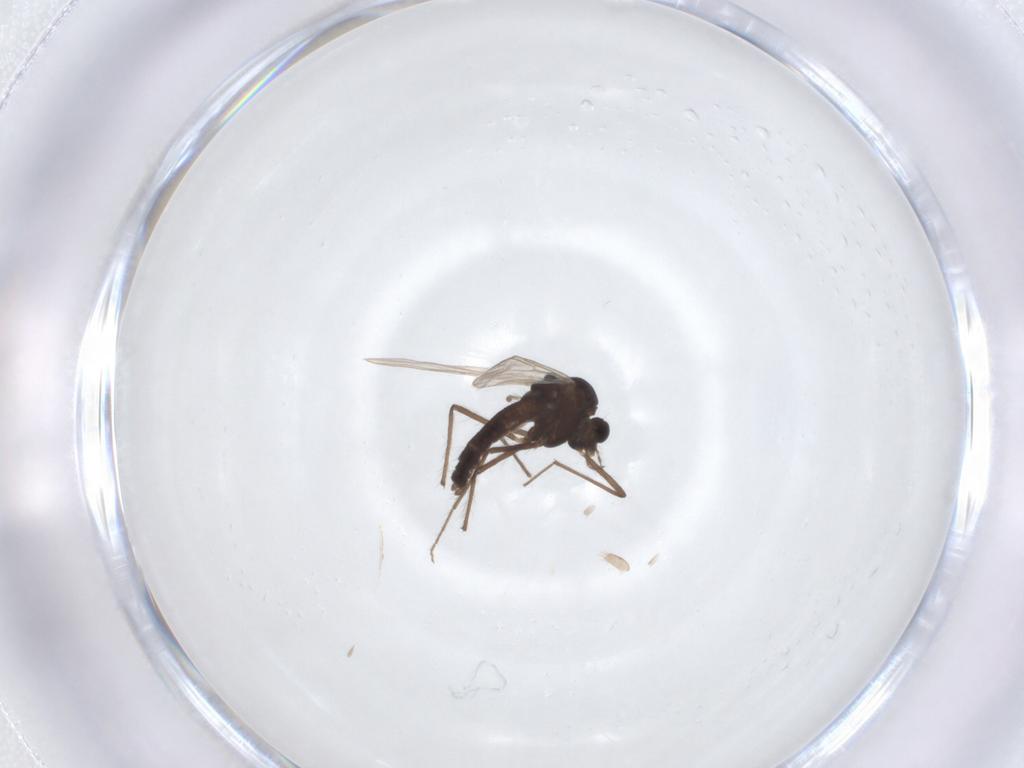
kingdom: Animalia
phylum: Arthropoda
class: Insecta
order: Diptera
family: Chironomidae
